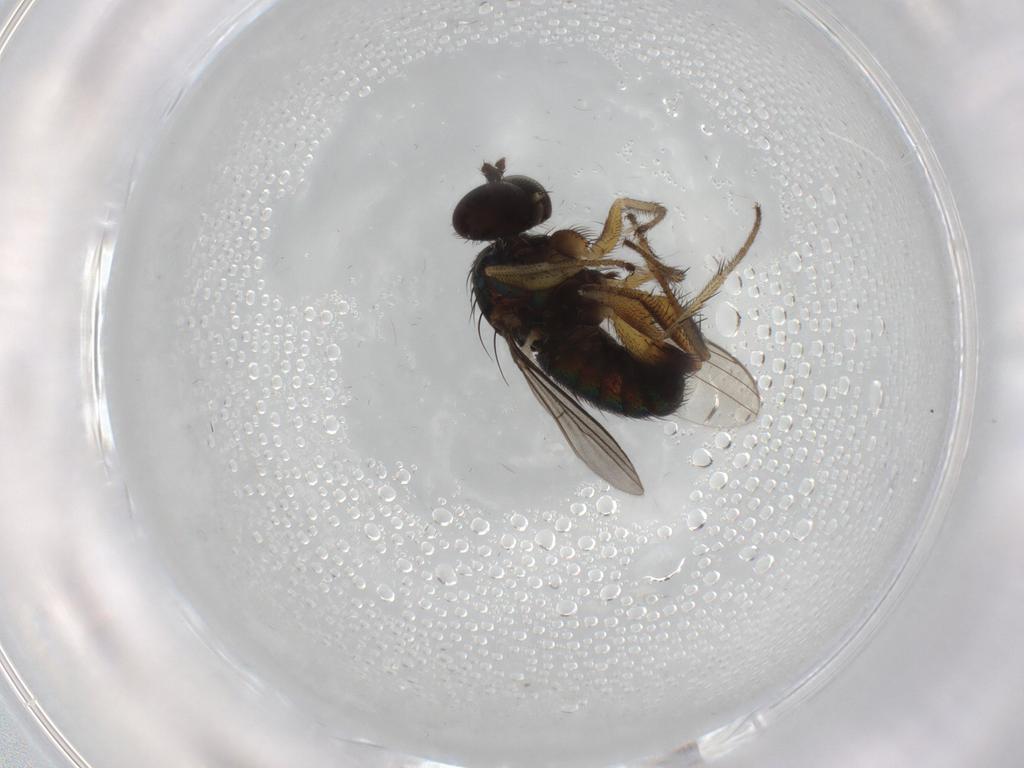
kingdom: Animalia
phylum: Arthropoda
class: Insecta
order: Diptera
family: Dolichopodidae
